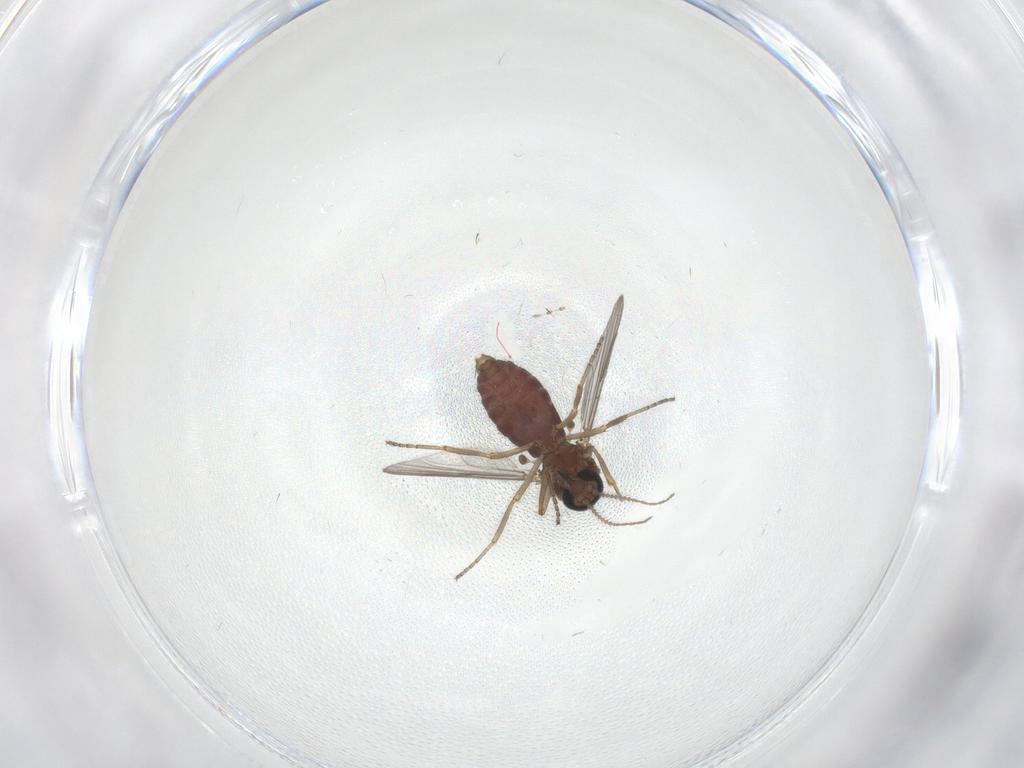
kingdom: Animalia
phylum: Arthropoda
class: Insecta
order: Diptera
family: Ceratopogonidae
